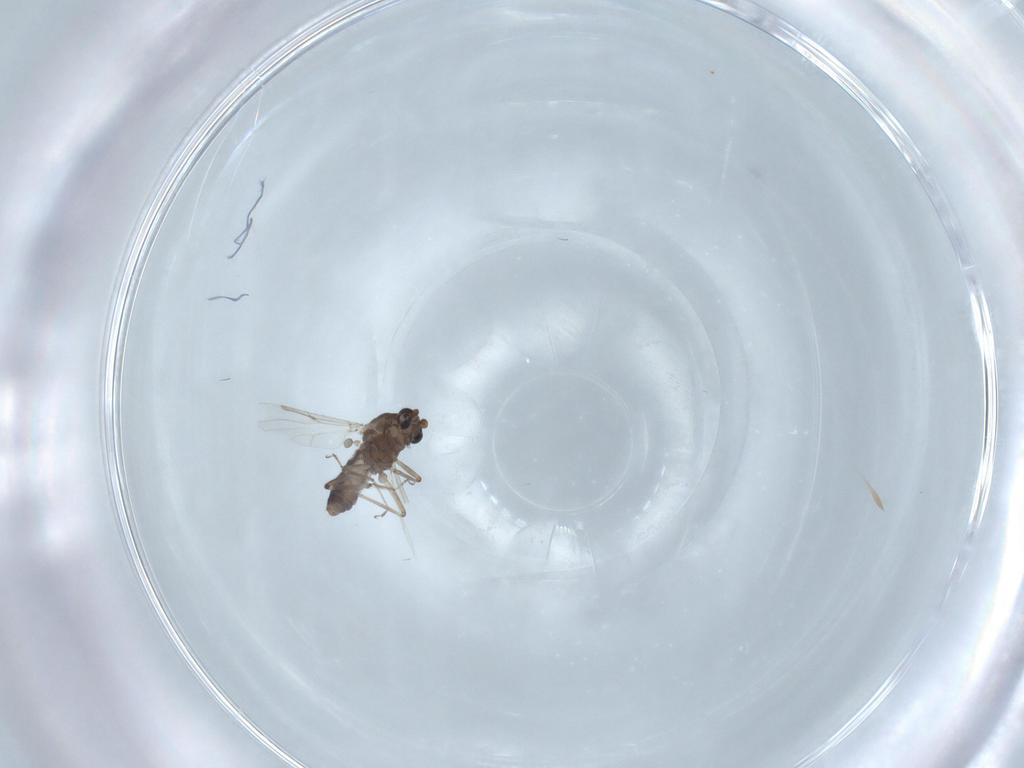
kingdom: Animalia
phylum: Arthropoda
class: Insecta
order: Diptera
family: Ceratopogonidae
